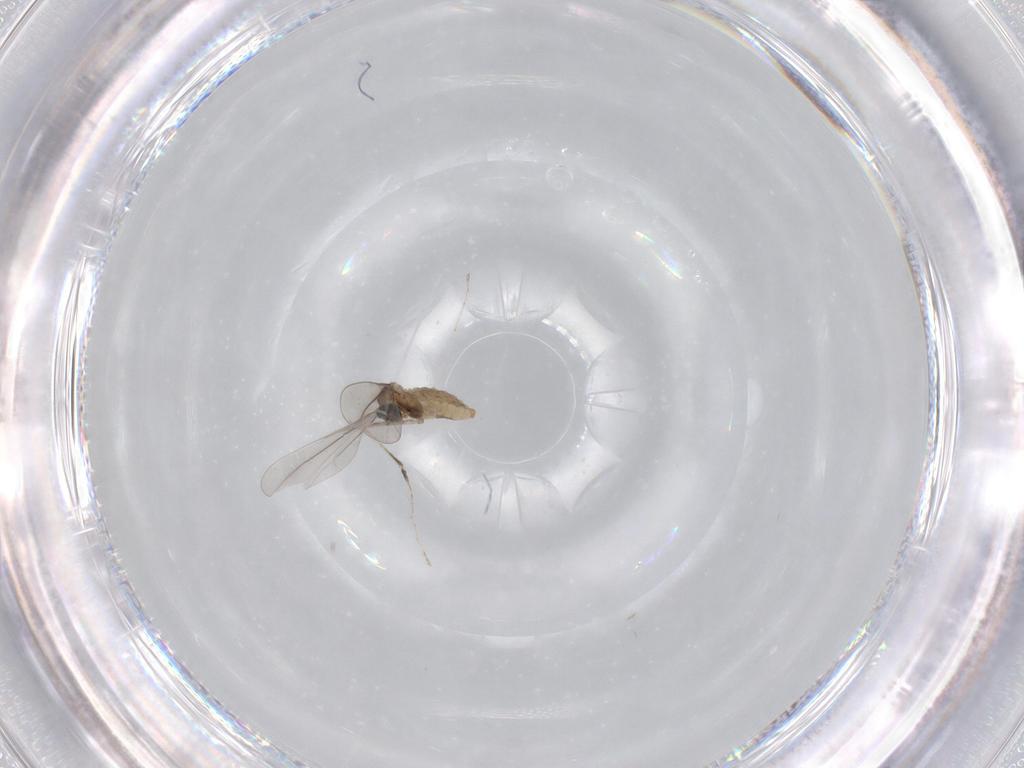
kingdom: Animalia
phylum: Arthropoda
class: Insecta
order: Diptera
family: Cecidomyiidae
